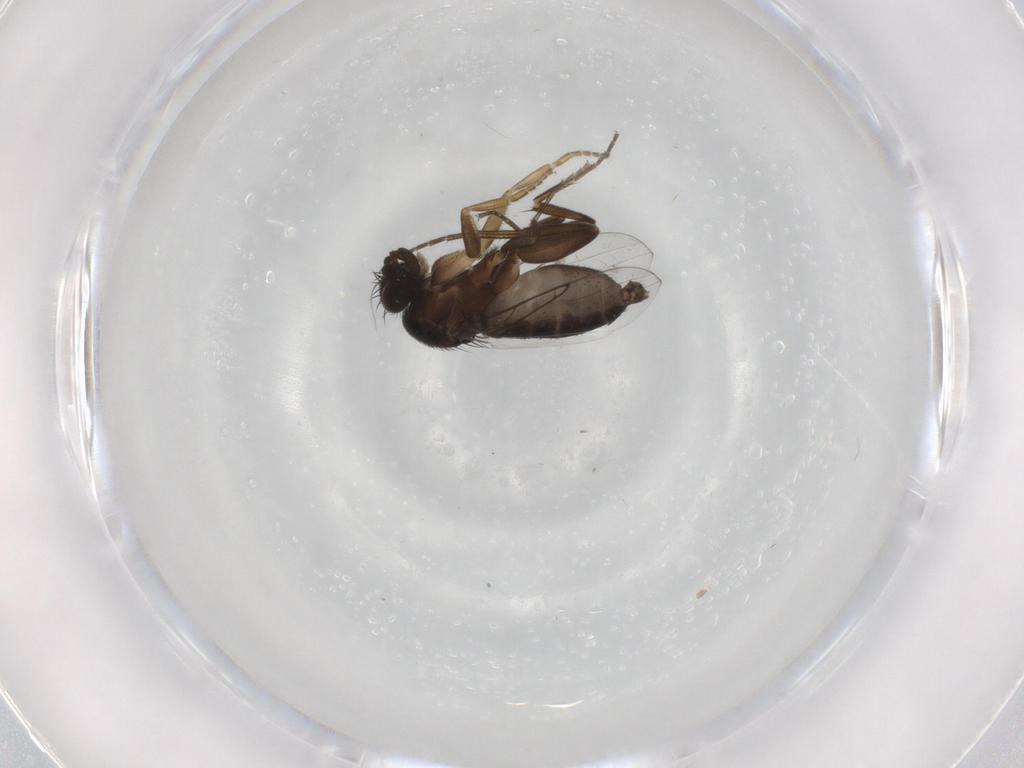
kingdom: Animalia
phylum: Arthropoda
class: Insecta
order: Diptera
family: Phoridae
